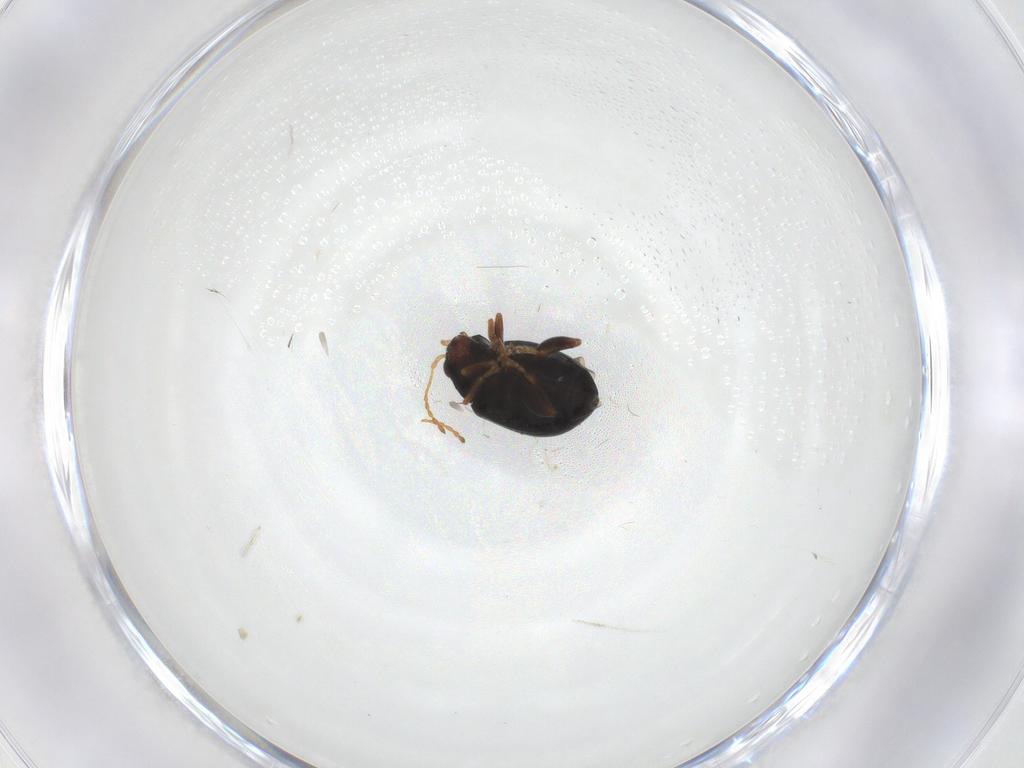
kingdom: Animalia
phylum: Arthropoda
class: Insecta
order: Coleoptera
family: Chrysomelidae
